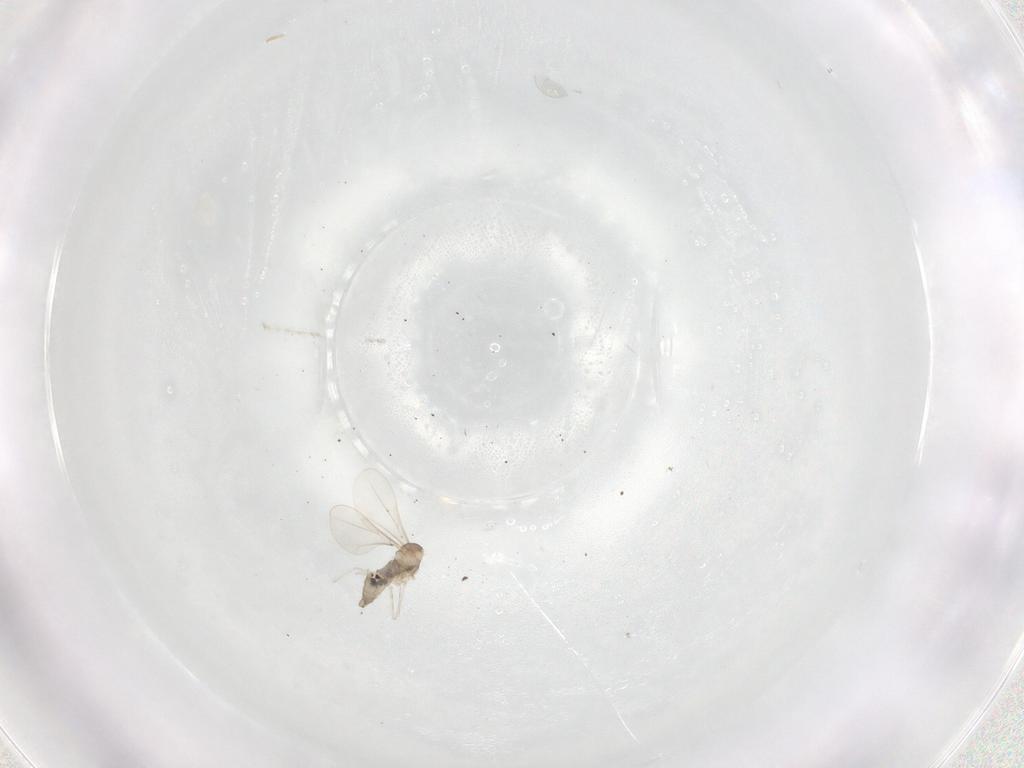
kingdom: Animalia
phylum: Arthropoda
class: Insecta
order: Diptera
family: Cecidomyiidae
